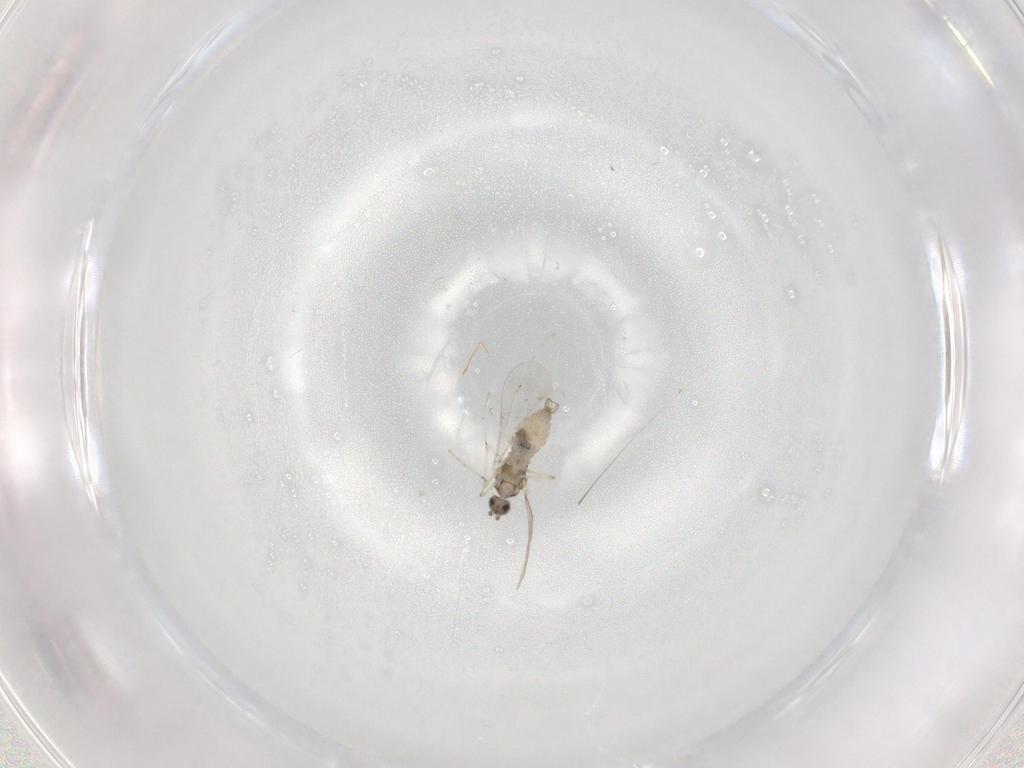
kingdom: Animalia
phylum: Arthropoda
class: Insecta
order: Diptera
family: Cecidomyiidae
